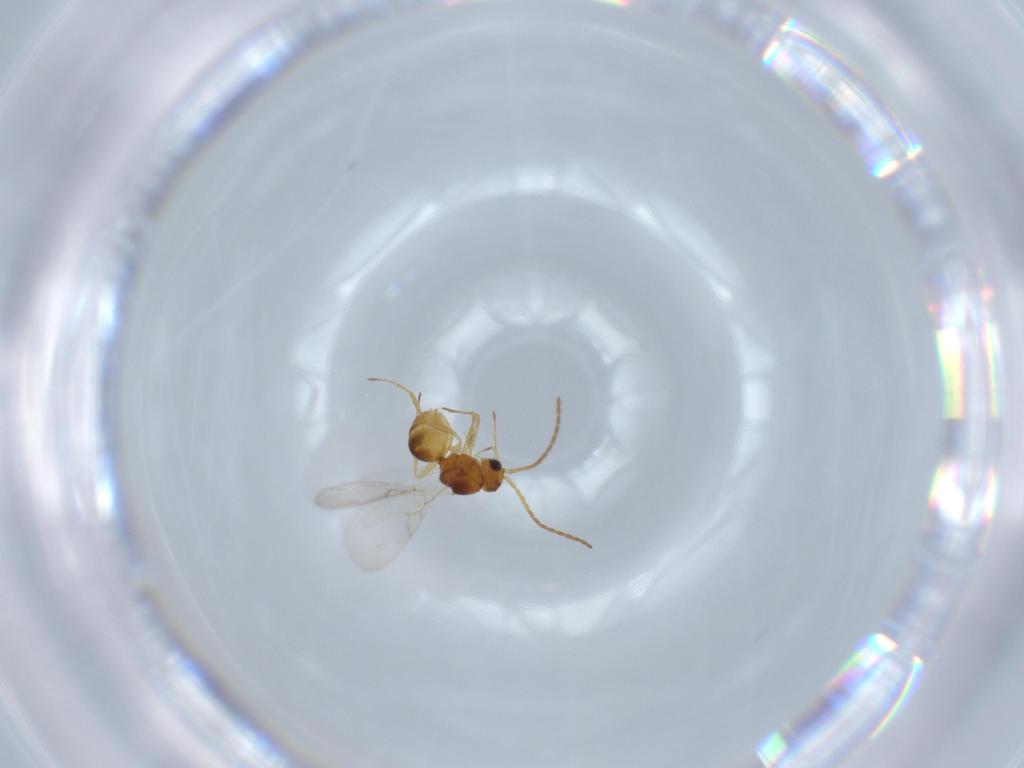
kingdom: Animalia
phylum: Arthropoda
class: Insecta
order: Hymenoptera
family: Figitidae
